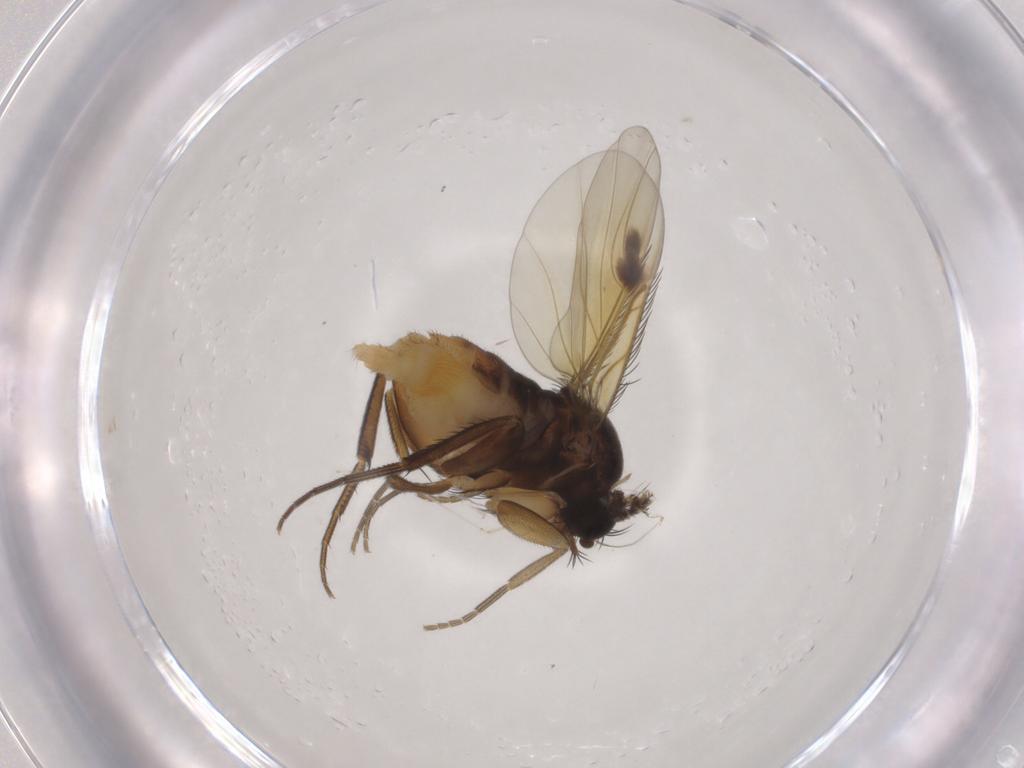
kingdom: Animalia
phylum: Arthropoda
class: Insecta
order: Diptera
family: Phoridae
